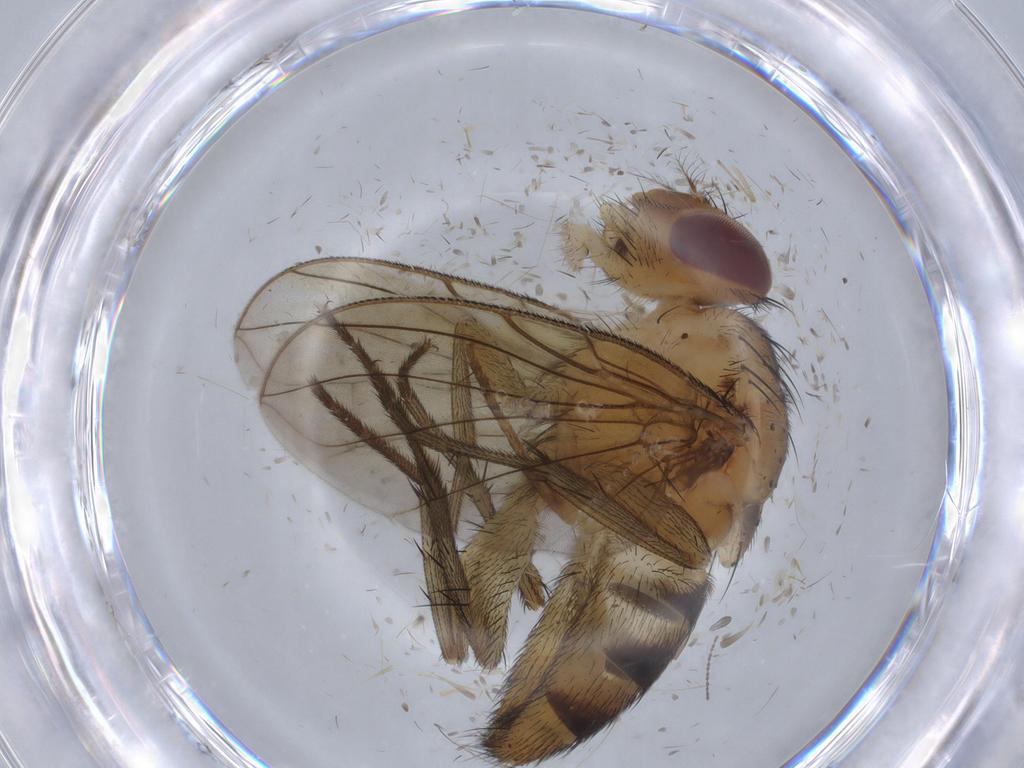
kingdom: Animalia
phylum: Arthropoda
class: Insecta
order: Diptera
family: Calliphoridae
